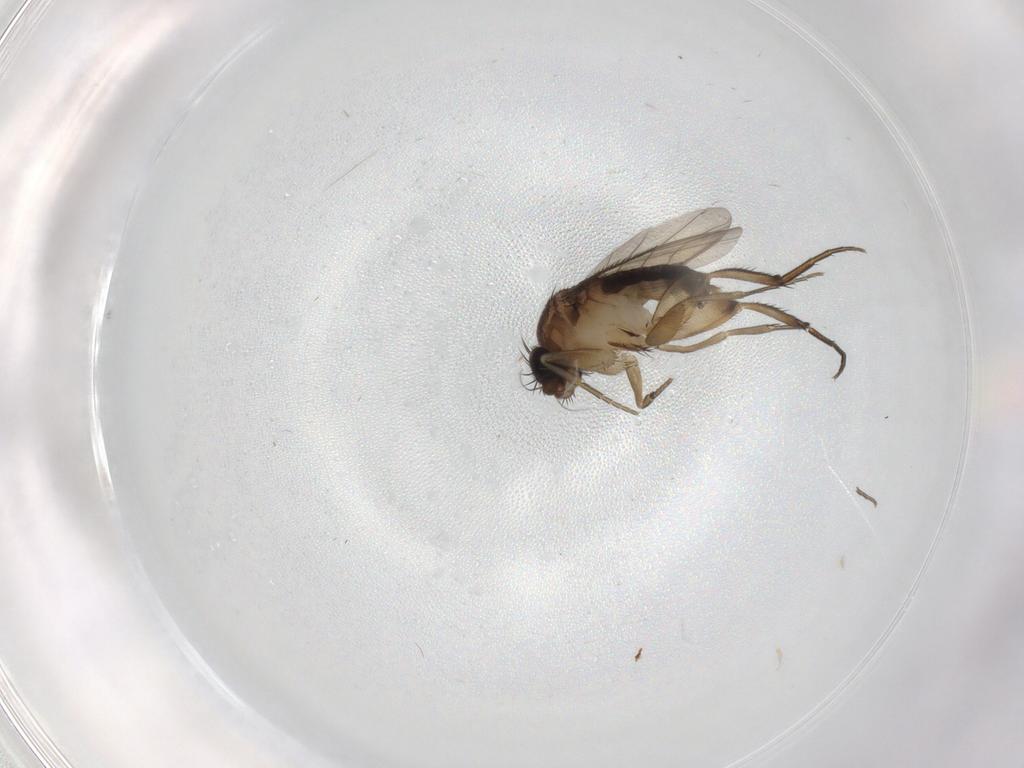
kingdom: Animalia
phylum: Arthropoda
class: Insecta
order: Diptera
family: Phoridae
